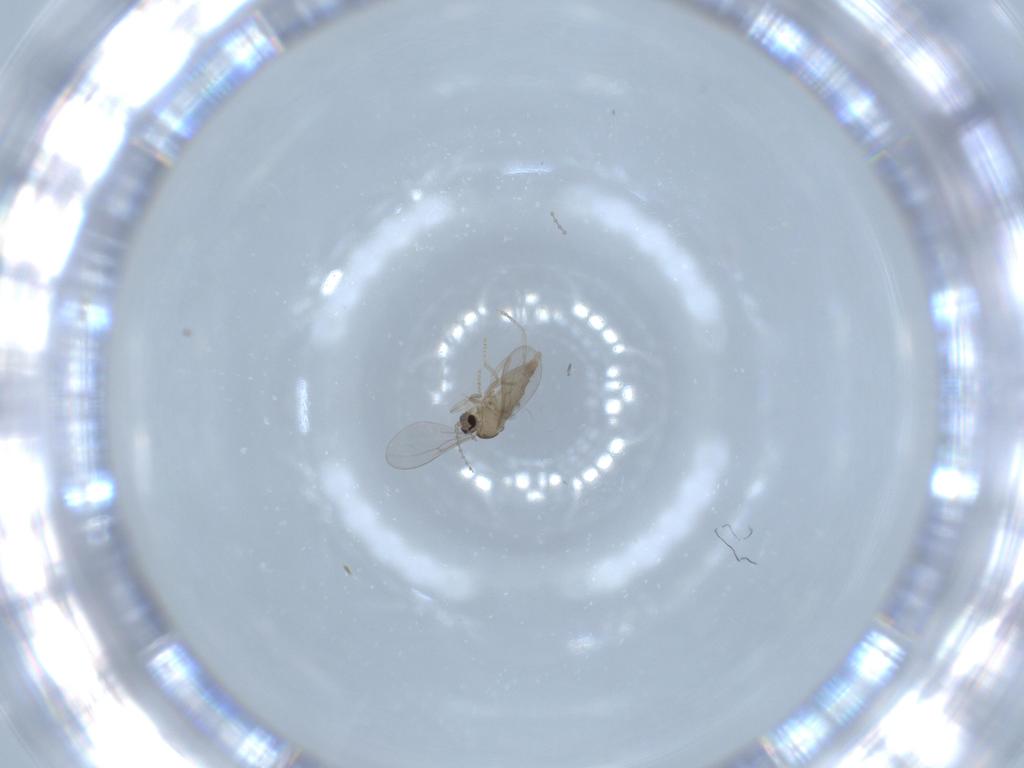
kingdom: Animalia
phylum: Arthropoda
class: Insecta
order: Diptera
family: Cecidomyiidae
